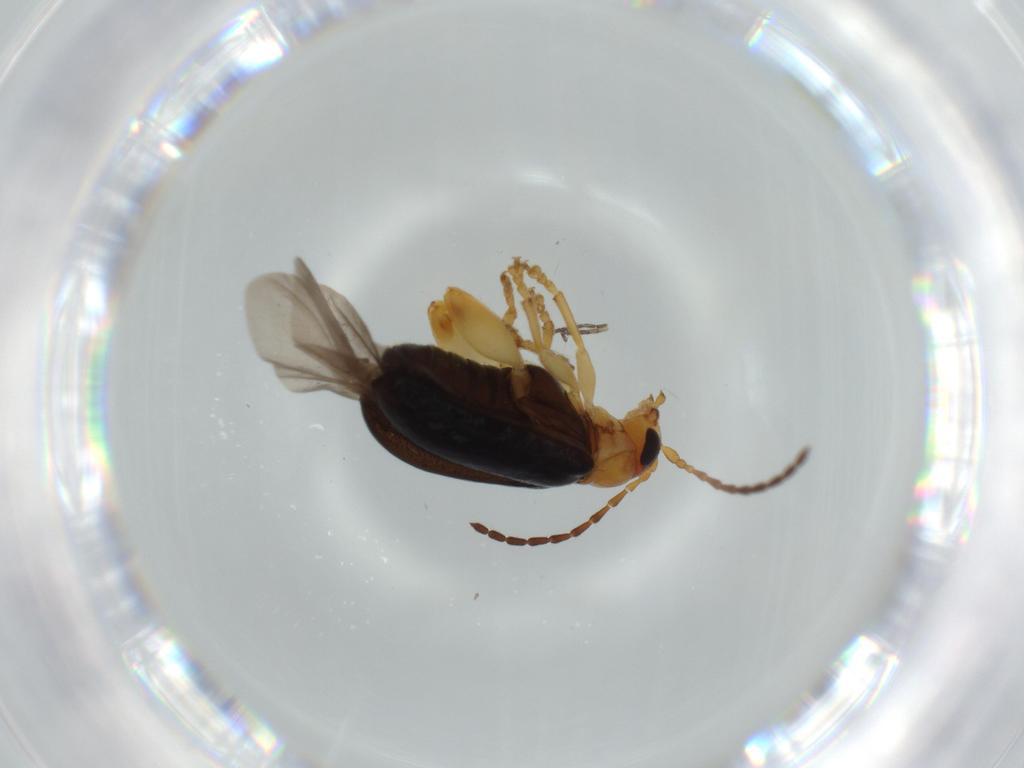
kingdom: Animalia
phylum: Arthropoda
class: Insecta
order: Coleoptera
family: Chrysomelidae
